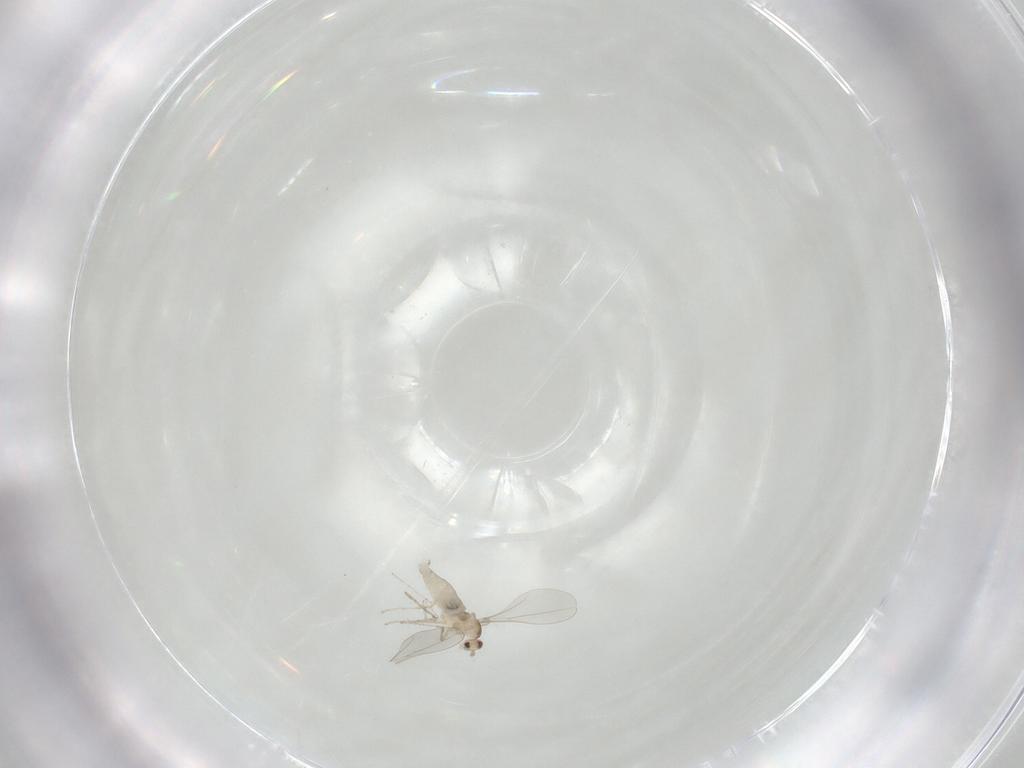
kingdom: Animalia
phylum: Arthropoda
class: Insecta
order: Diptera
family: Cecidomyiidae
